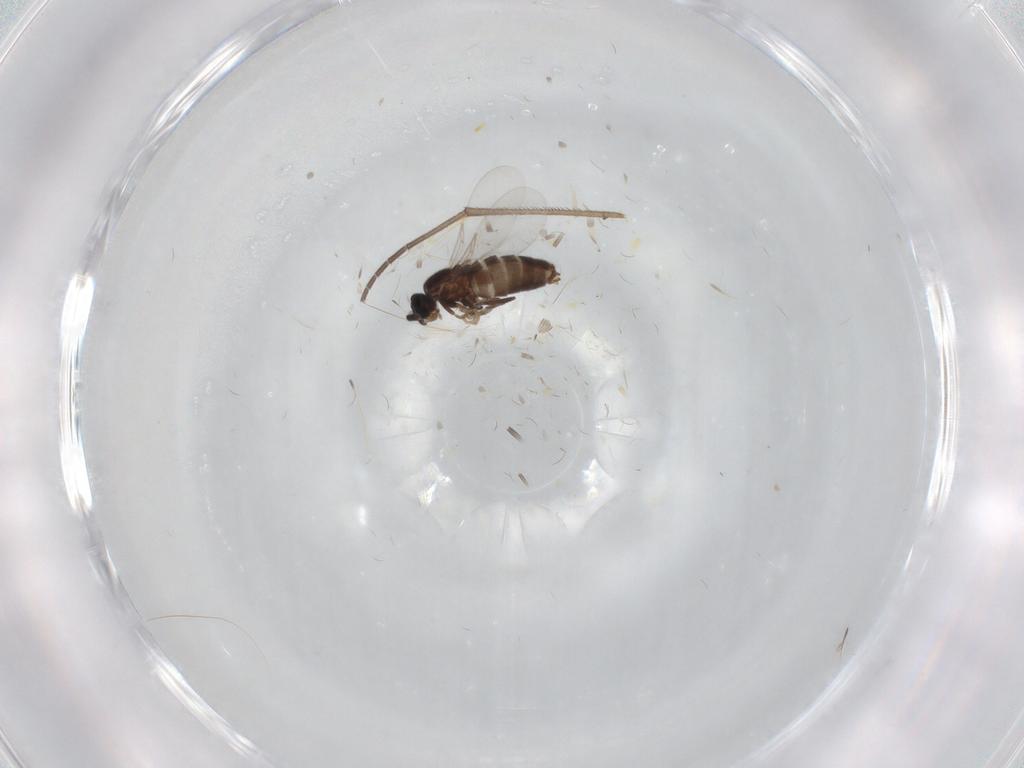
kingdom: Animalia
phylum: Arthropoda
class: Insecta
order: Diptera
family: Scatopsidae
